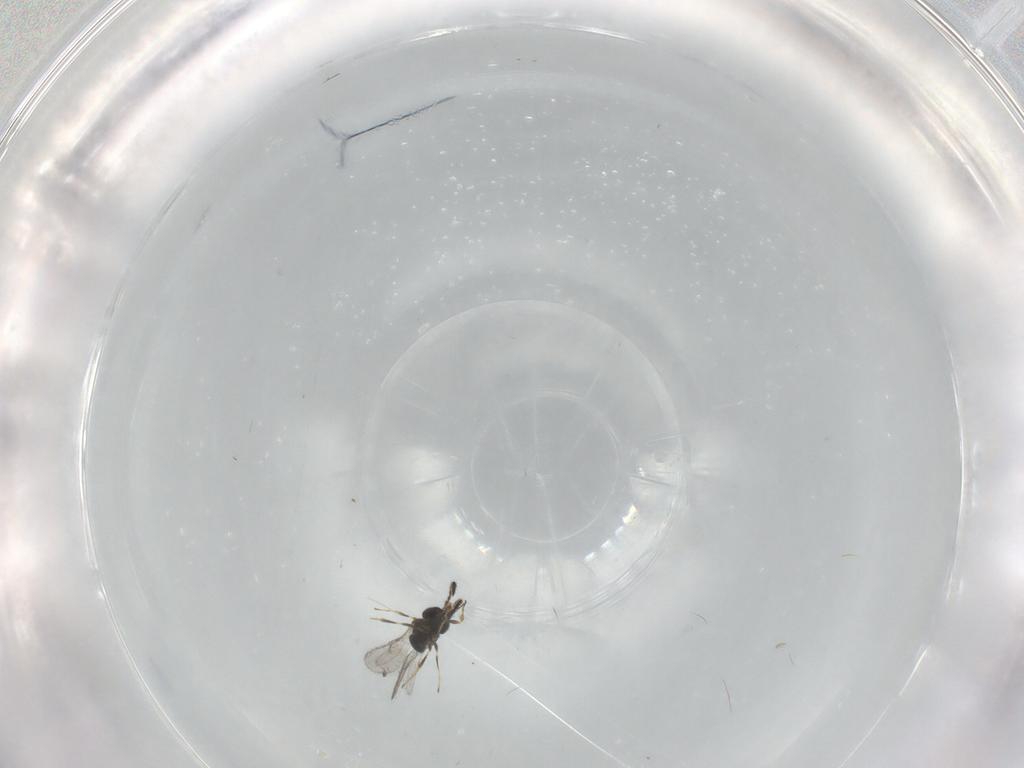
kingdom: Animalia
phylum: Arthropoda
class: Insecta
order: Hymenoptera
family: Scelionidae
